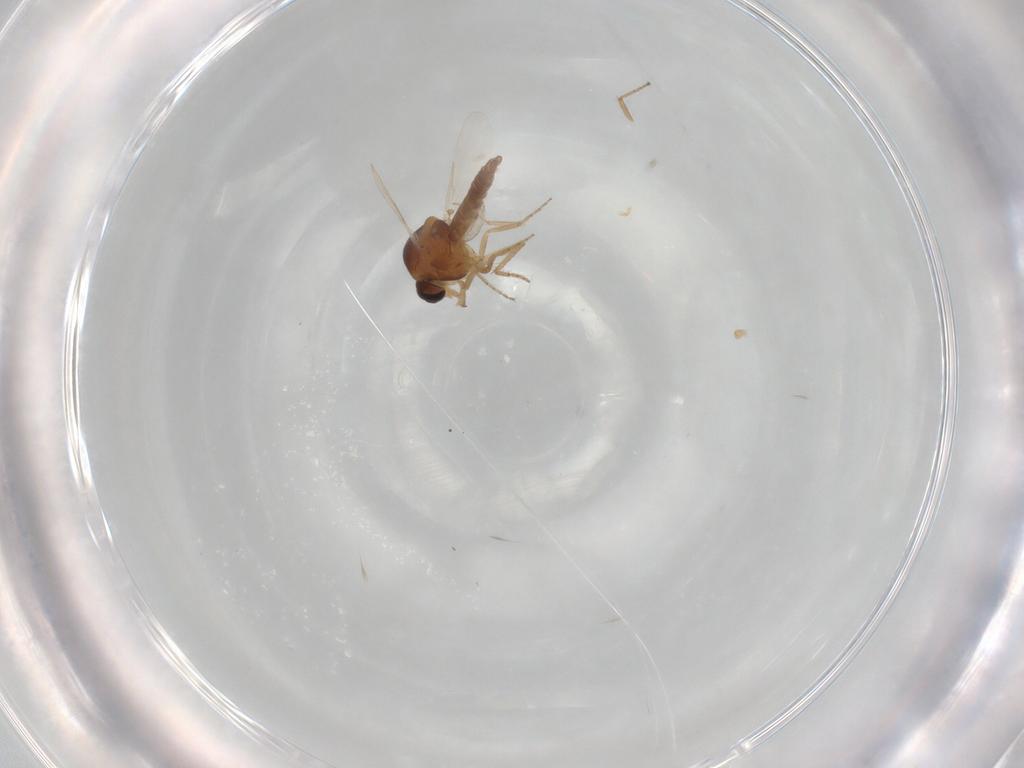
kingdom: Animalia
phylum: Arthropoda
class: Insecta
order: Diptera
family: Ceratopogonidae
